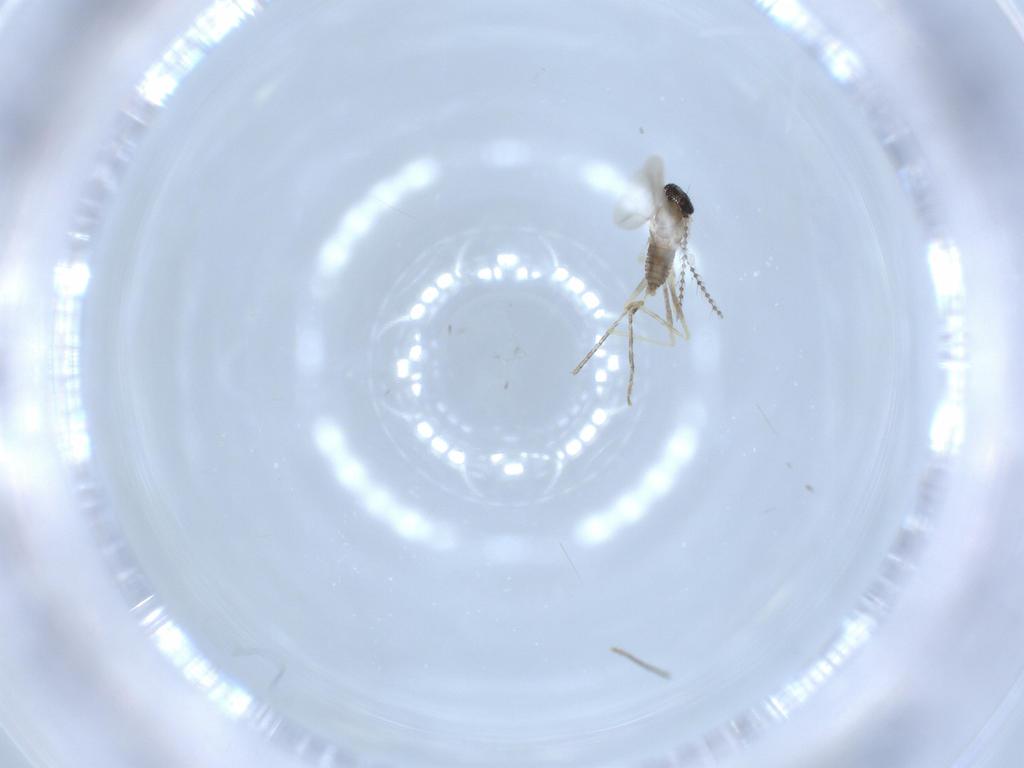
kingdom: Animalia
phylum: Arthropoda
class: Insecta
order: Diptera
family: Cecidomyiidae
